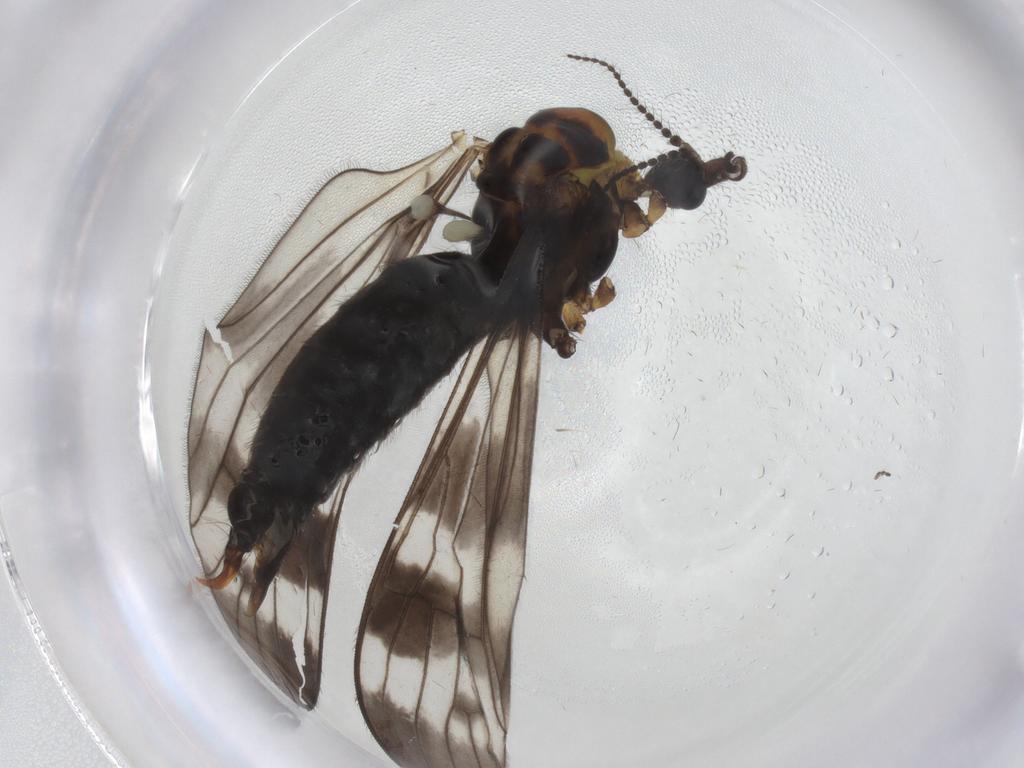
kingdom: Animalia
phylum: Arthropoda
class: Insecta
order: Diptera
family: Limoniidae
